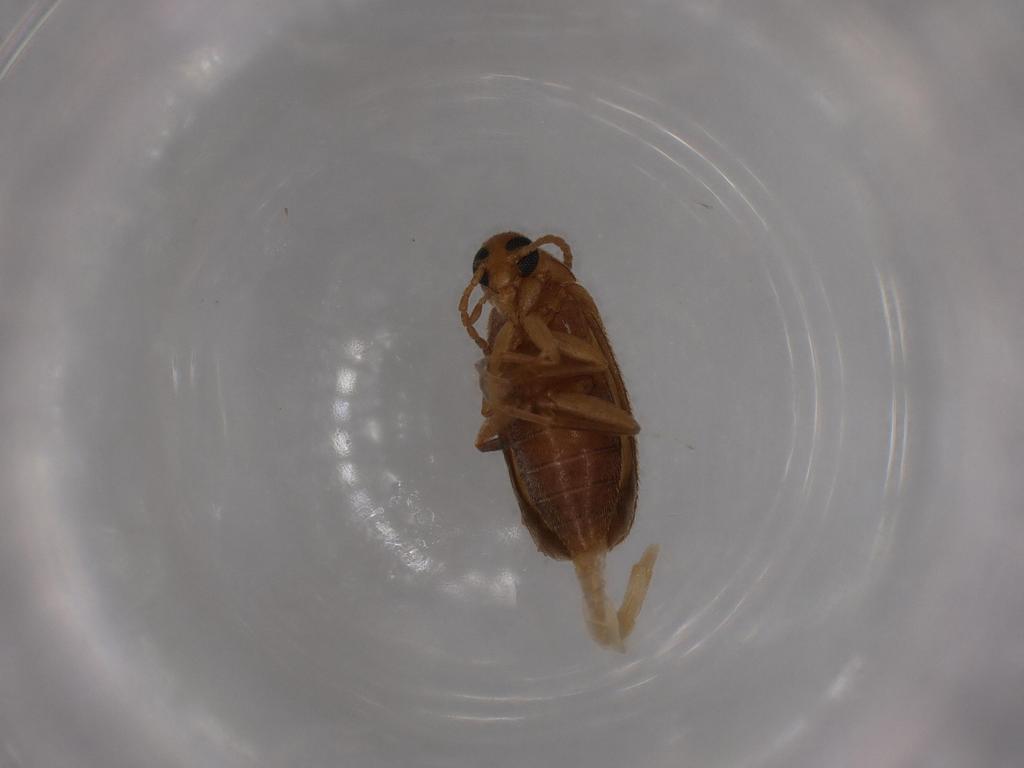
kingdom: Animalia
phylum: Arthropoda
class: Insecta
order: Coleoptera
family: Scraptiidae
